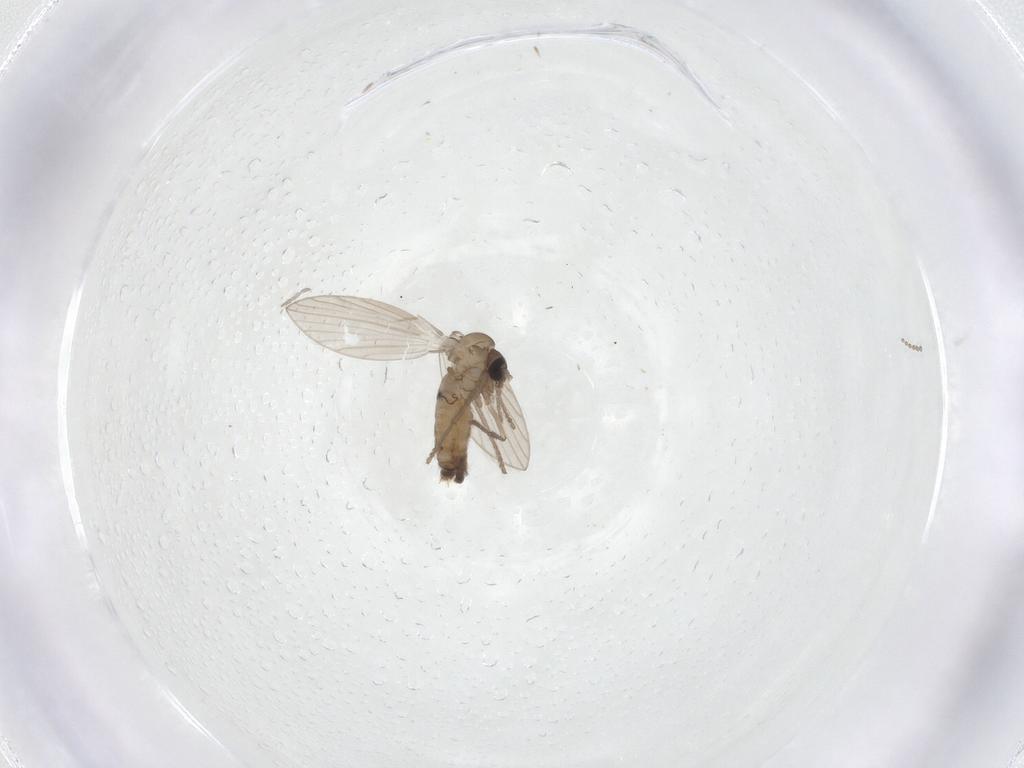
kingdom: Animalia
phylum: Arthropoda
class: Insecta
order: Diptera
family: Psychodidae
